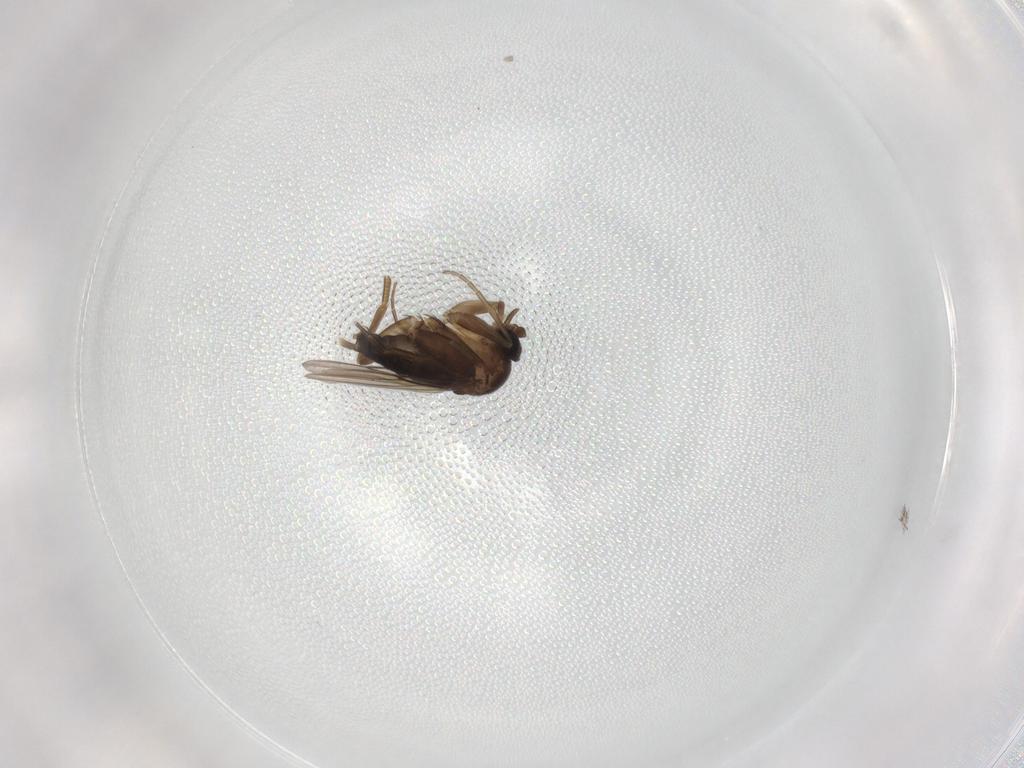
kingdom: Animalia
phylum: Arthropoda
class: Insecta
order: Diptera
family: Phoridae
